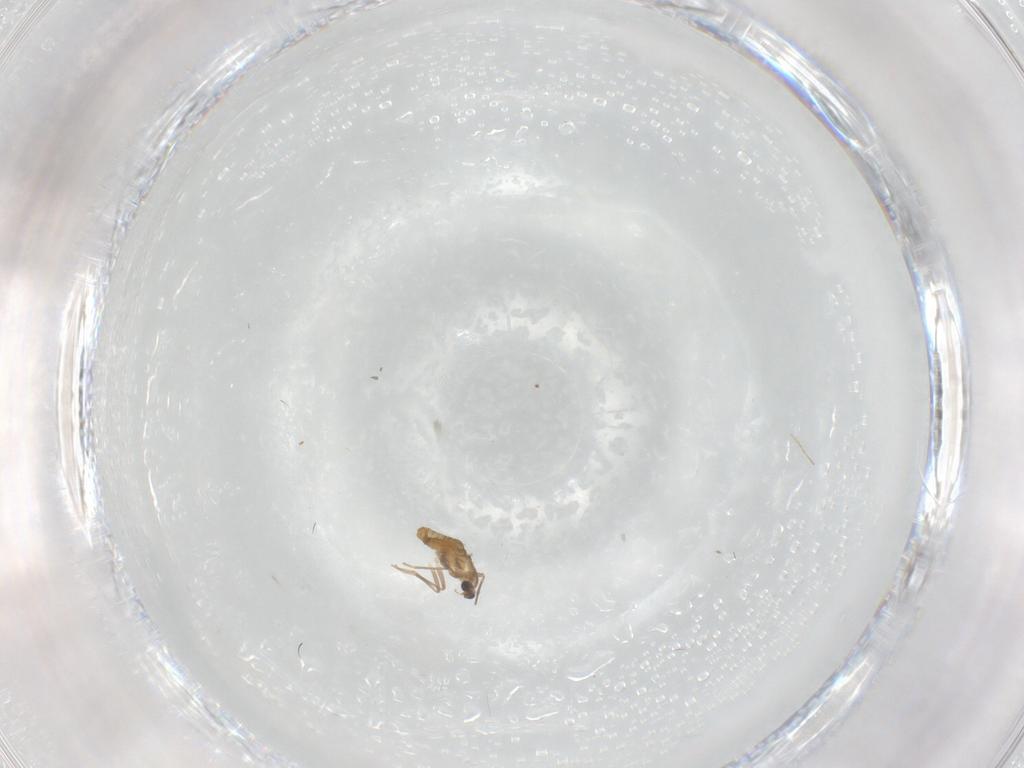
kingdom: Animalia
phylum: Arthropoda
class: Insecta
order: Diptera
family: Chironomidae
